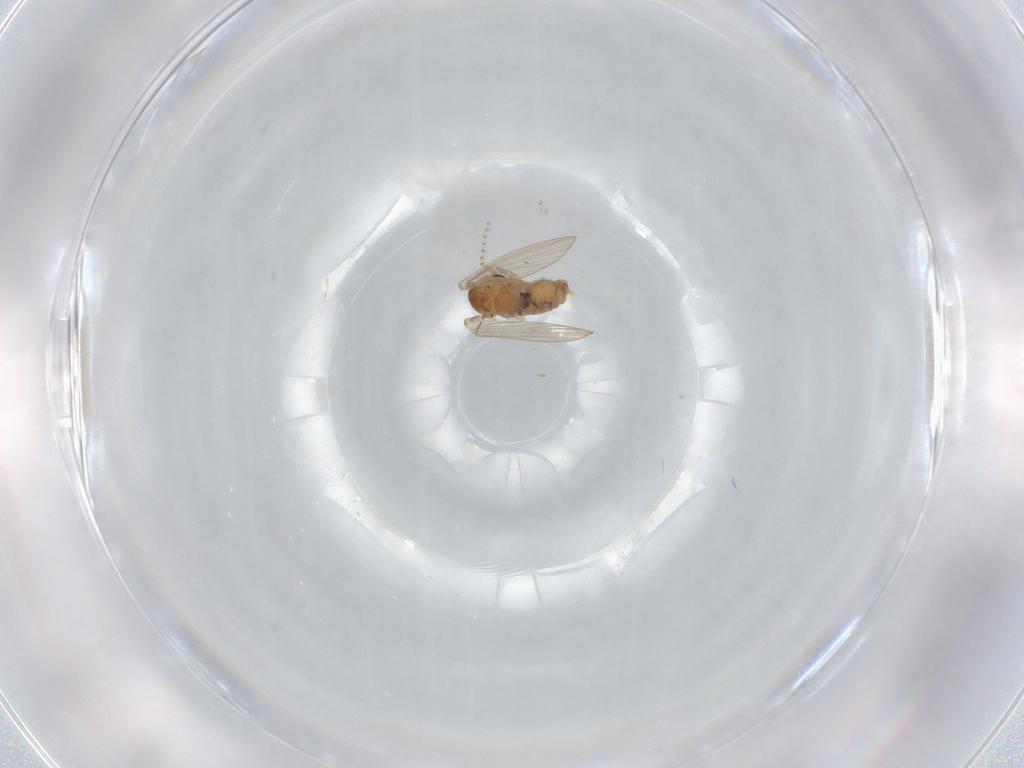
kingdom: Animalia
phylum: Arthropoda
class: Insecta
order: Diptera
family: Psychodidae
